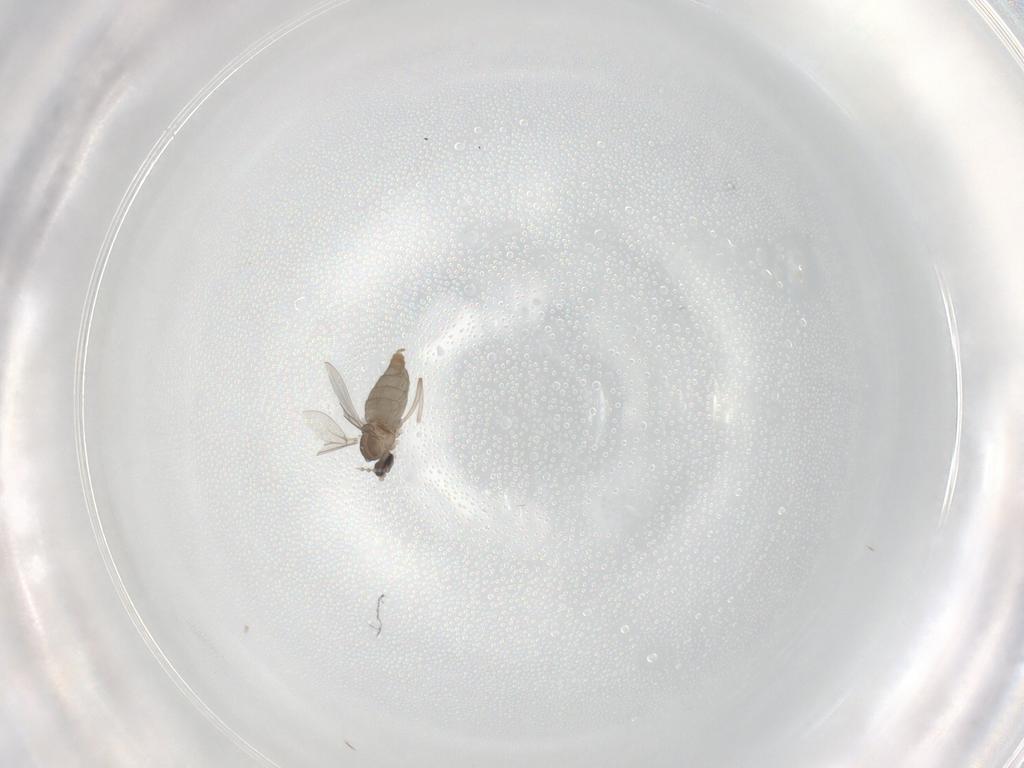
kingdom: Animalia
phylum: Arthropoda
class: Insecta
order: Diptera
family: Cecidomyiidae
